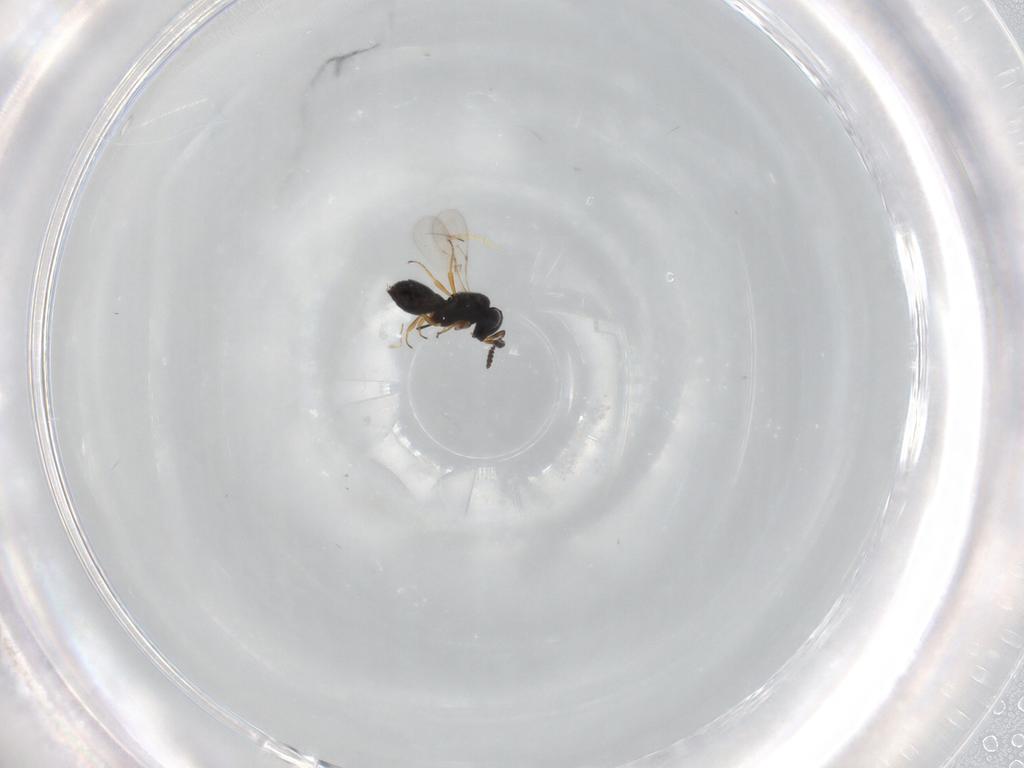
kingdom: Animalia
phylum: Arthropoda
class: Insecta
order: Hymenoptera
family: Scelionidae
